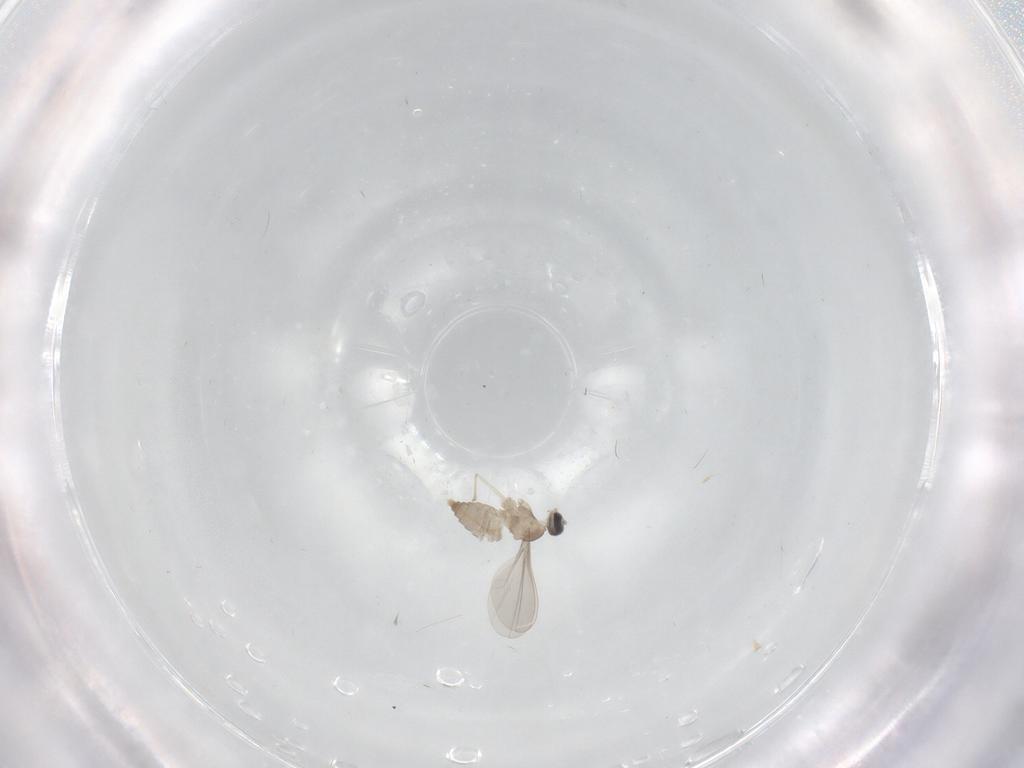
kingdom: Animalia
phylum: Arthropoda
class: Insecta
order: Diptera
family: Cecidomyiidae
